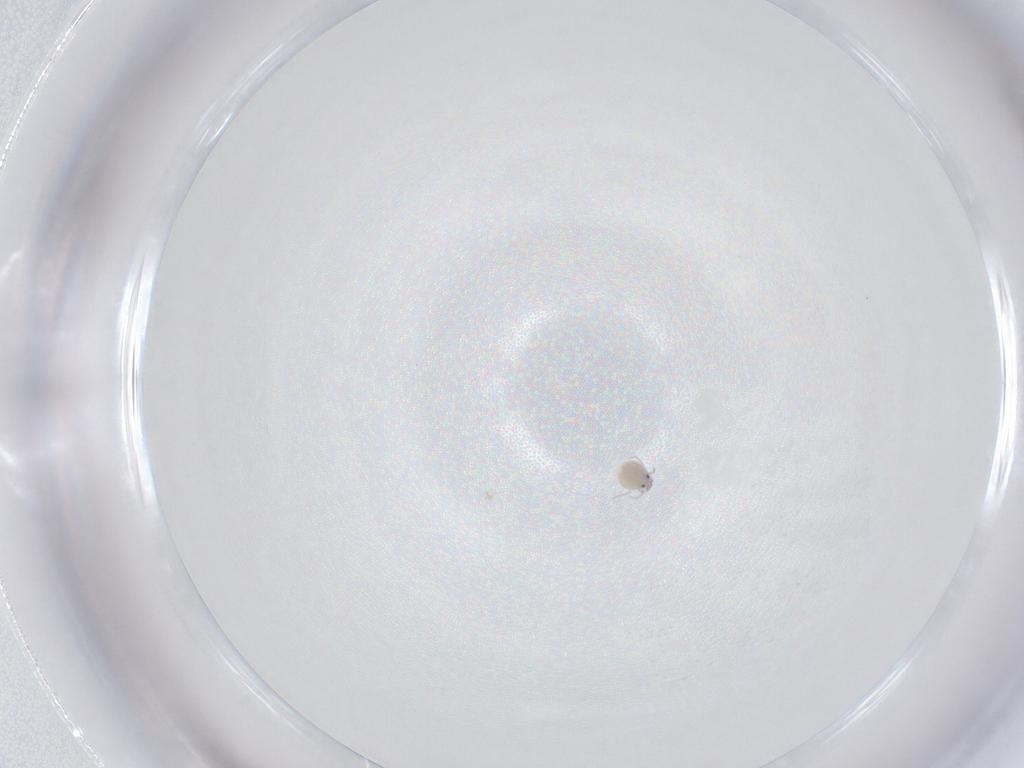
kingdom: Animalia
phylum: Arthropoda
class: Arachnida
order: Trombidiformes
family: Pionidae
